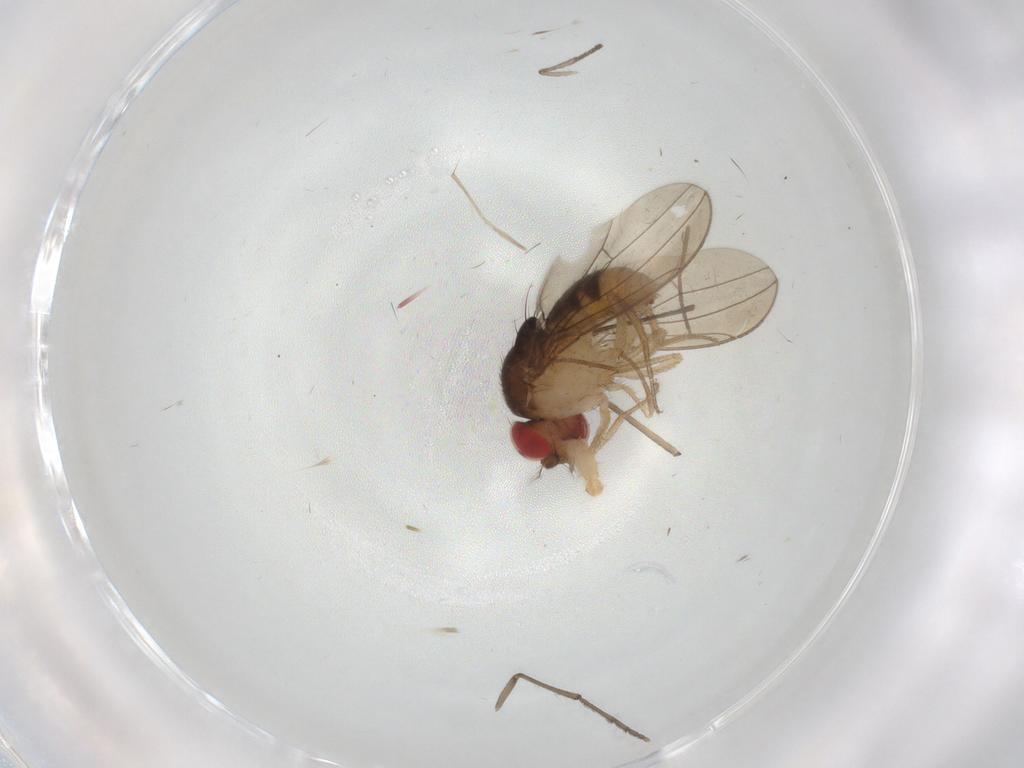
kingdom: Animalia
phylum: Arthropoda
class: Insecta
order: Diptera
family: Drosophilidae
